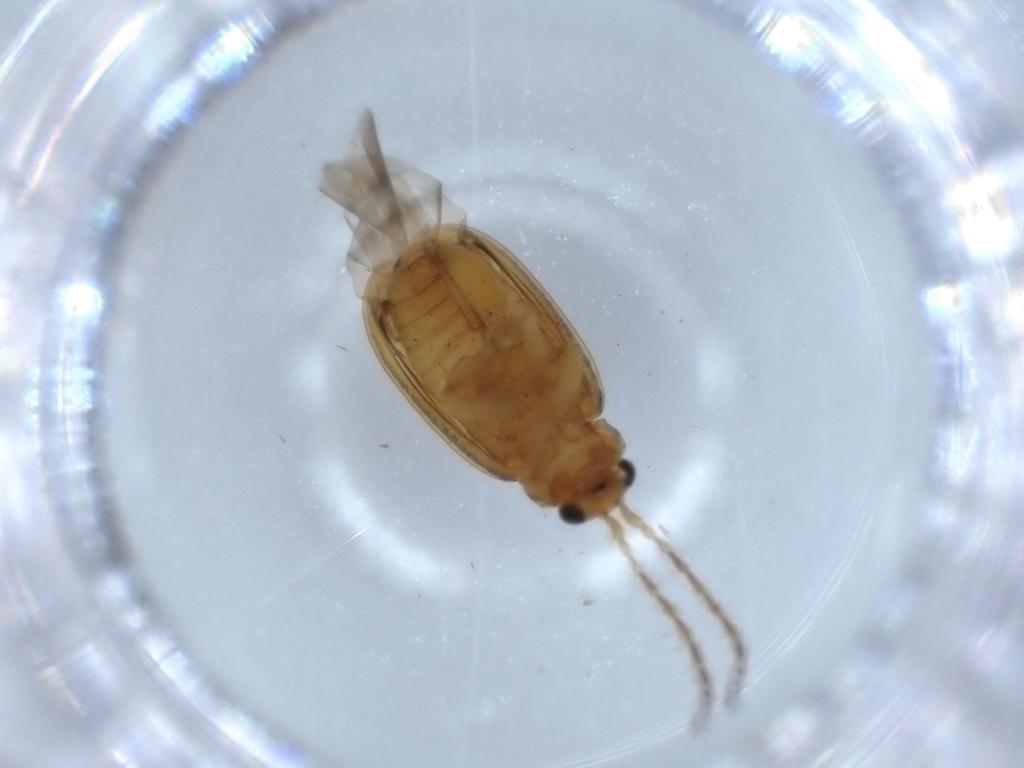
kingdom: Animalia
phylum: Arthropoda
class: Insecta
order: Coleoptera
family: Chrysomelidae
